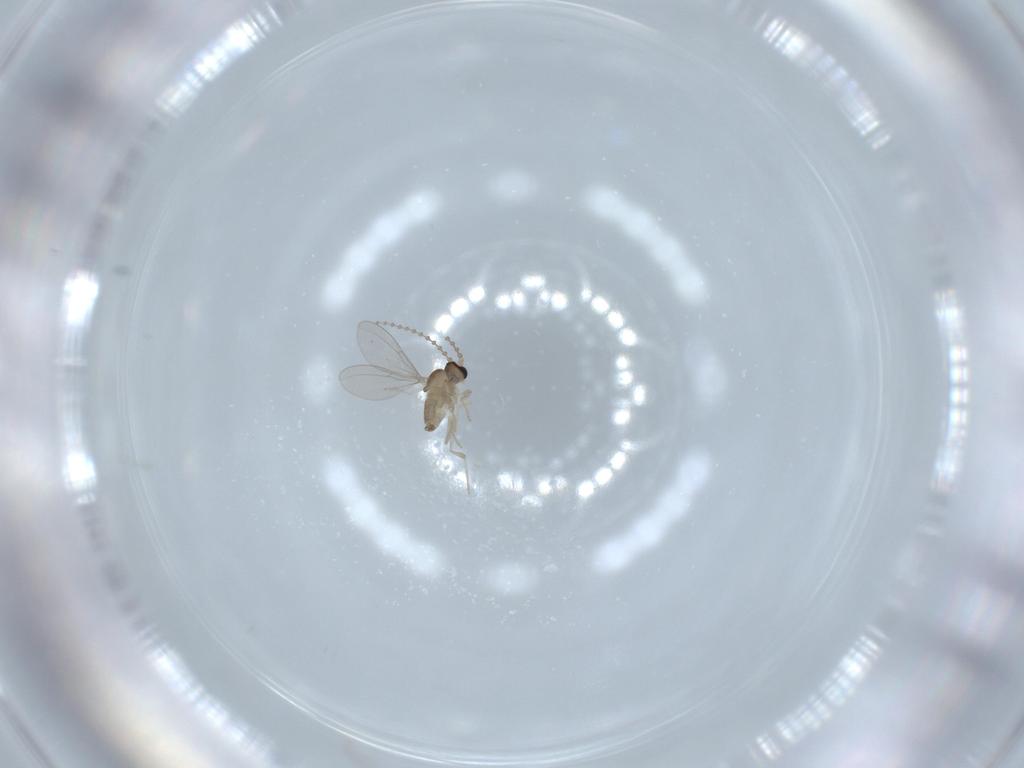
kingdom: Animalia
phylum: Arthropoda
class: Insecta
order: Diptera
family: Cecidomyiidae
